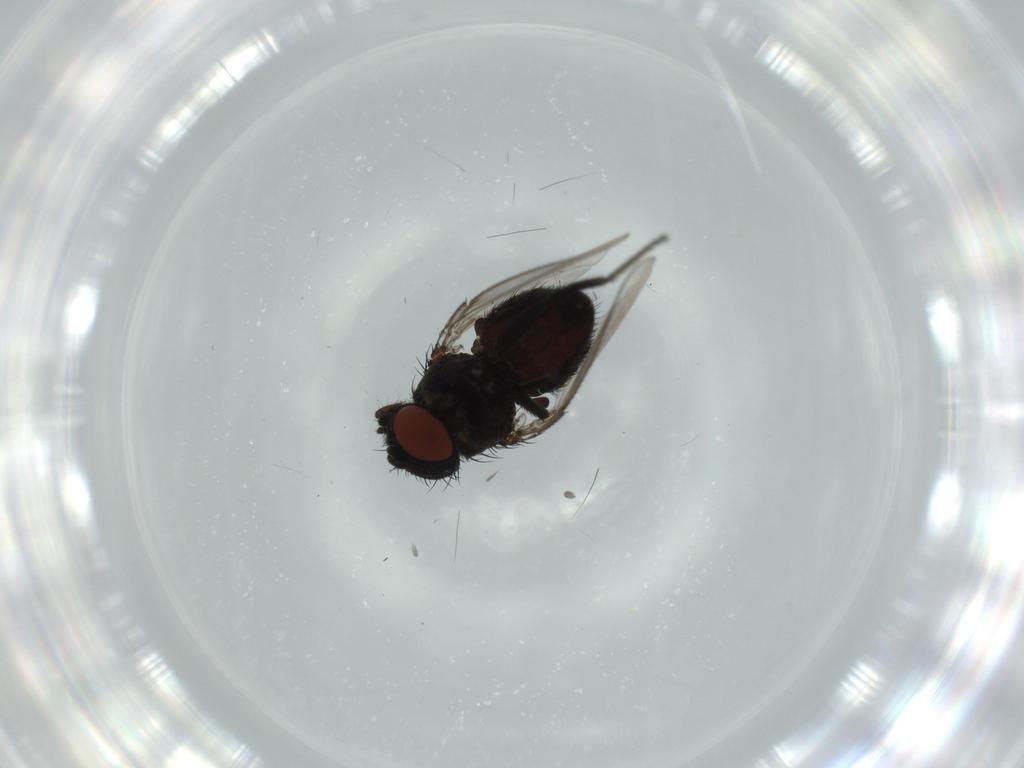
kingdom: Animalia
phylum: Arthropoda
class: Insecta
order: Diptera
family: Milichiidae
